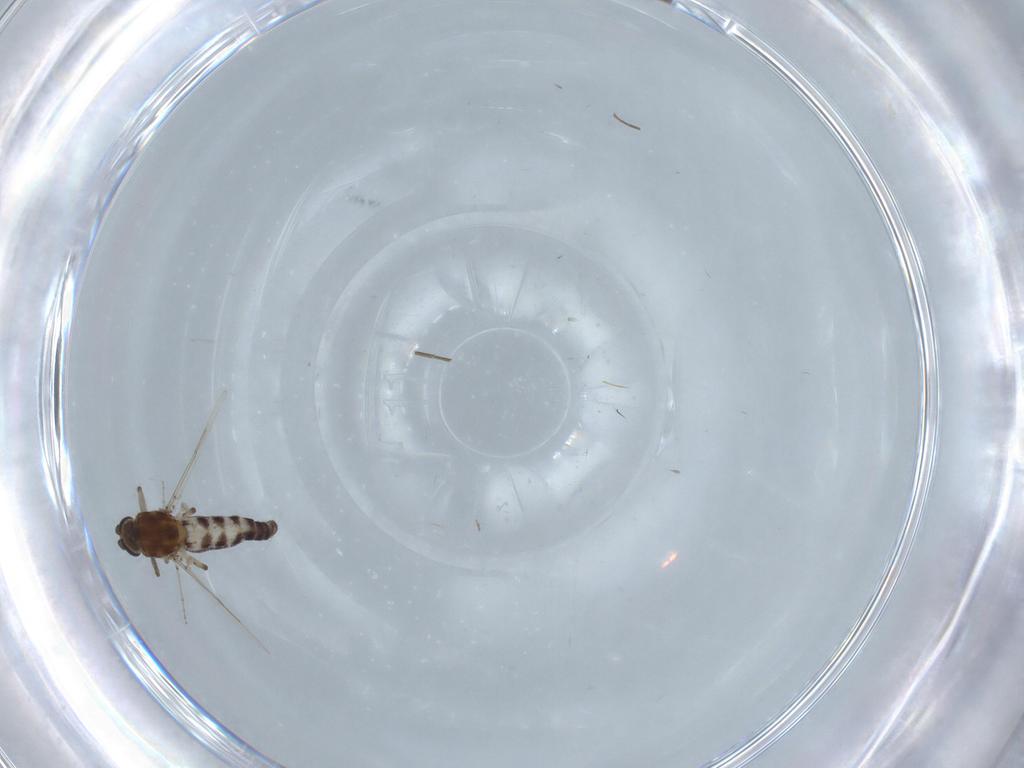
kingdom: Animalia
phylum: Arthropoda
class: Insecta
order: Diptera
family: Ceratopogonidae
